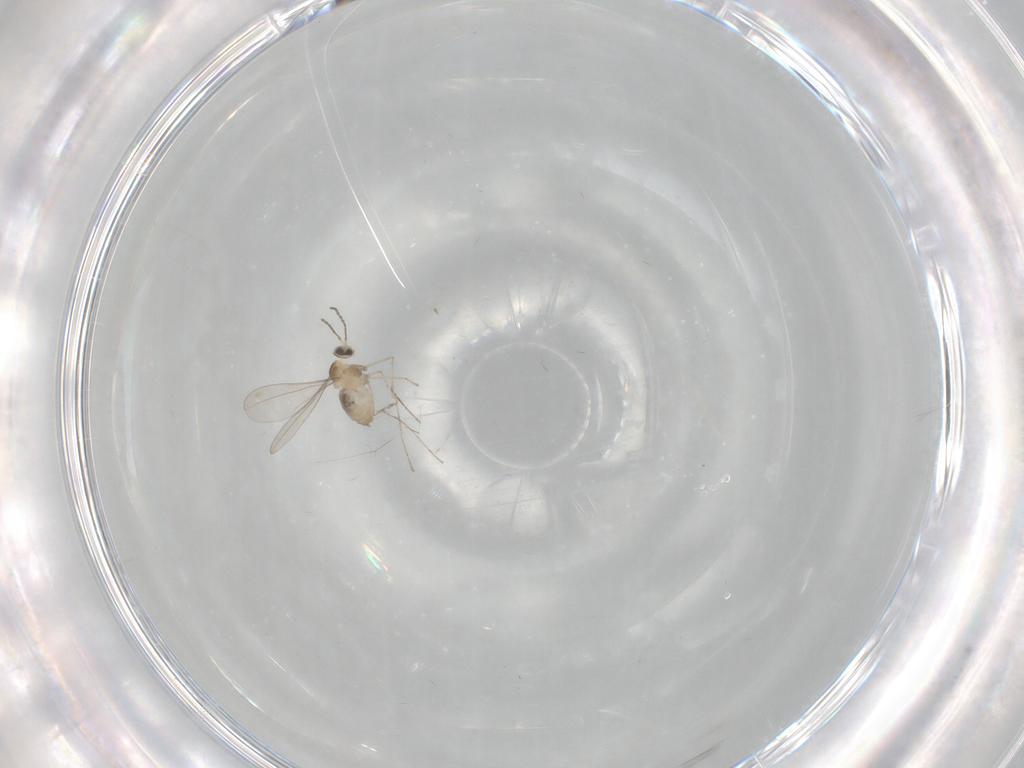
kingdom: Animalia
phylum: Arthropoda
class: Insecta
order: Diptera
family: Cecidomyiidae
